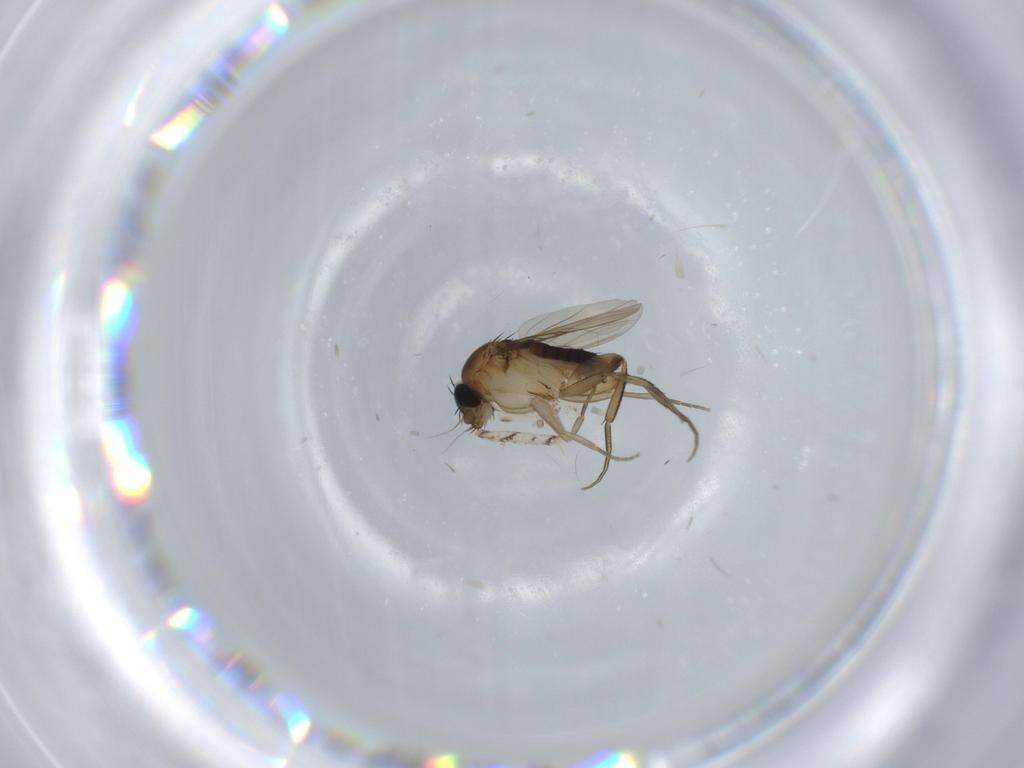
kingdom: Animalia
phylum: Arthropoda
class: Insecta
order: Diptera
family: Phoridae
